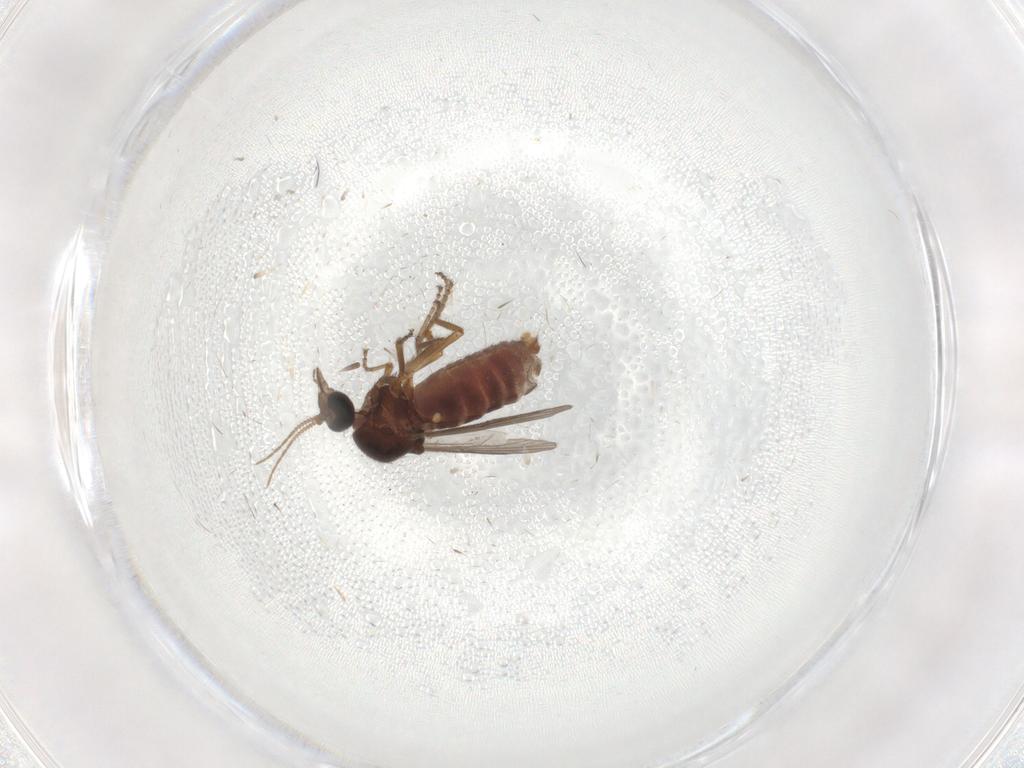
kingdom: Animalia
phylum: Arthropoda
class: Insecta
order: Diptera
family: Ceratopogonidae
